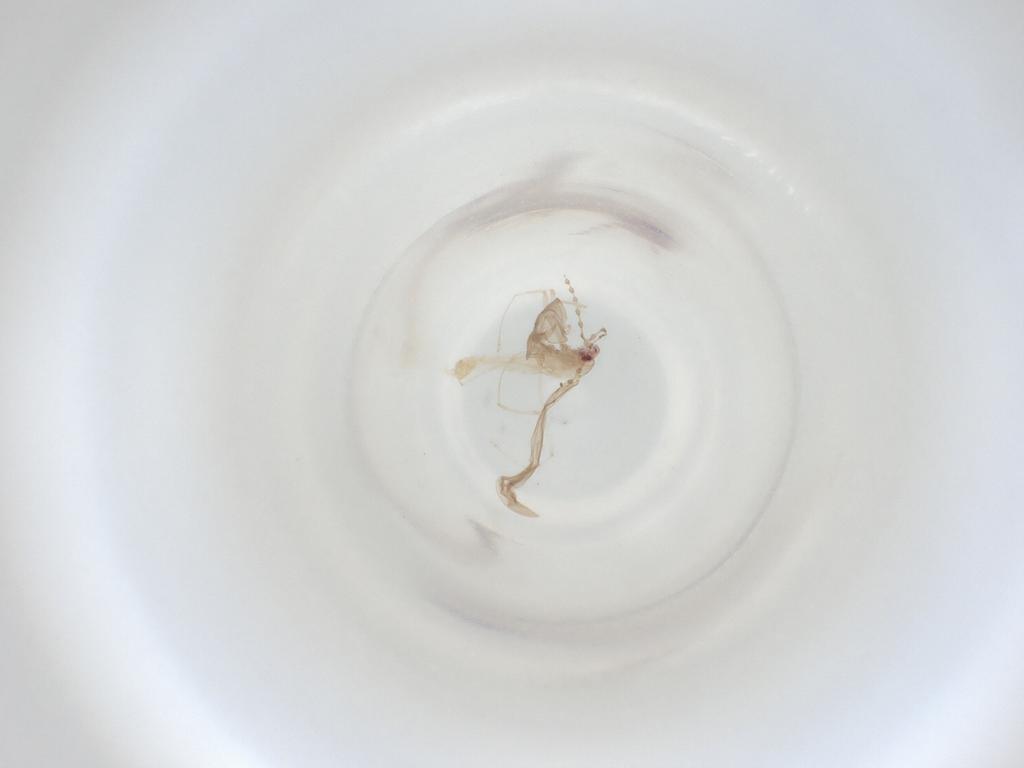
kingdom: Animalia
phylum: Arthropoda
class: Insecta
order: Diptera
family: Cecidomyiidae
